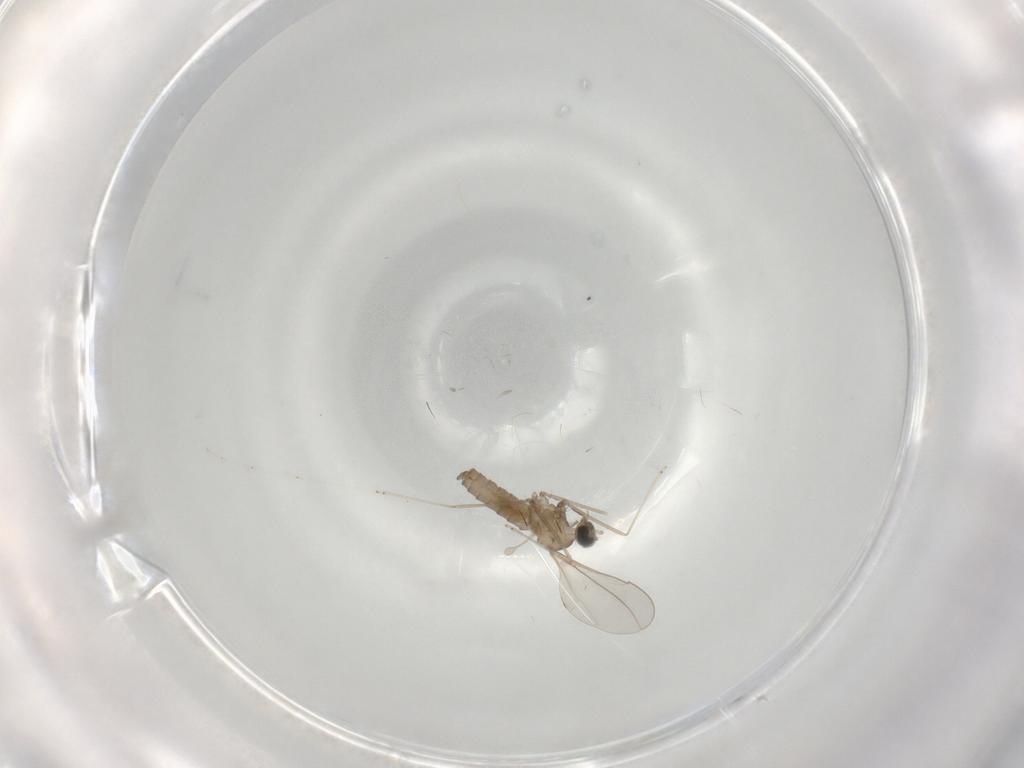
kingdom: Animalia
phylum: Arthropoda
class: Insecta
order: Diptera
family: Cecidomyiidae
